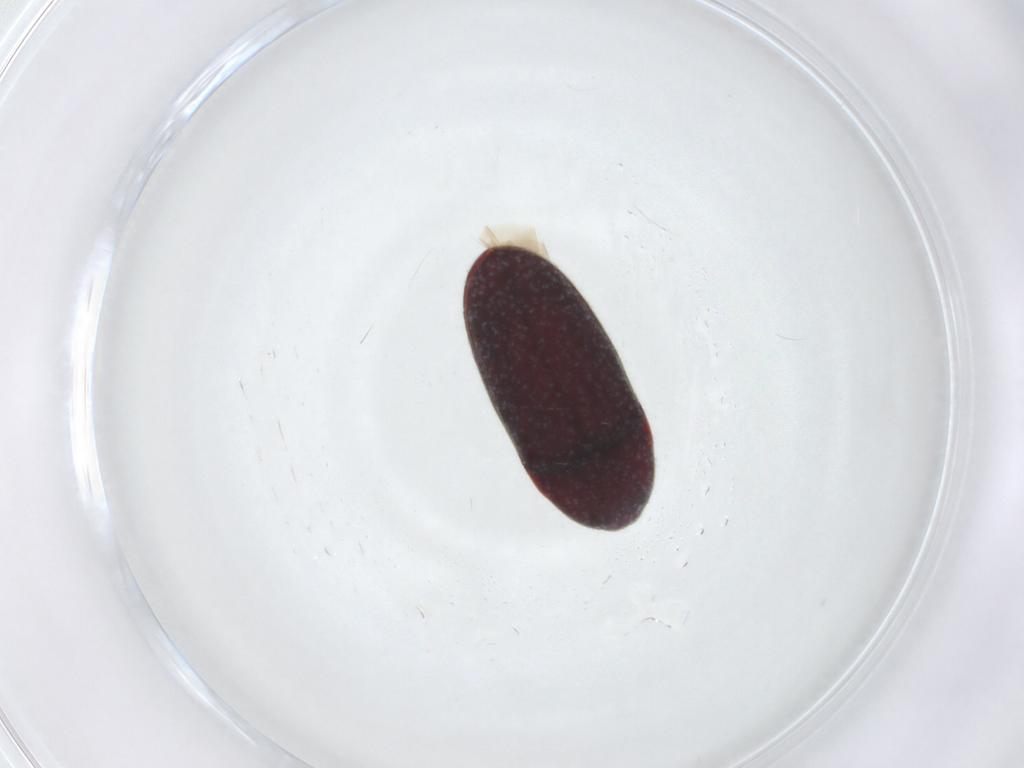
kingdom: Animalia
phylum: Arthropoda
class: Insecta
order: Coleoptera
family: Throscidae
